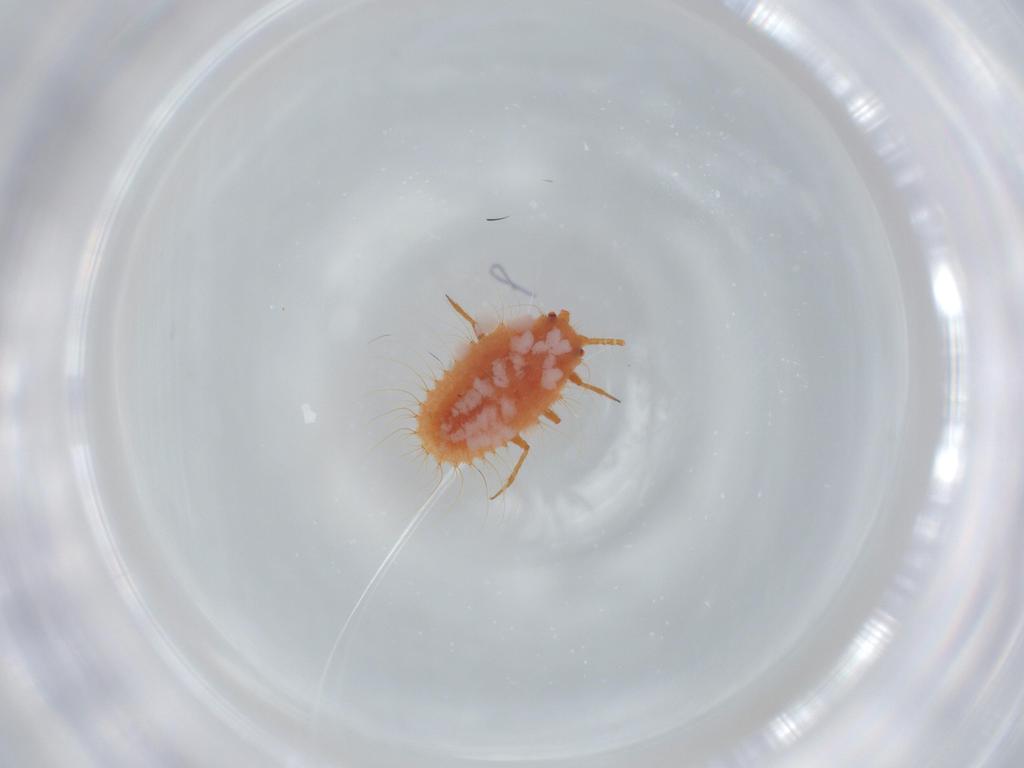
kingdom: Animalia
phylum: Arthropoda
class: Insecta
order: Hemiptera
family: Coccoidea_incertae_sedis
